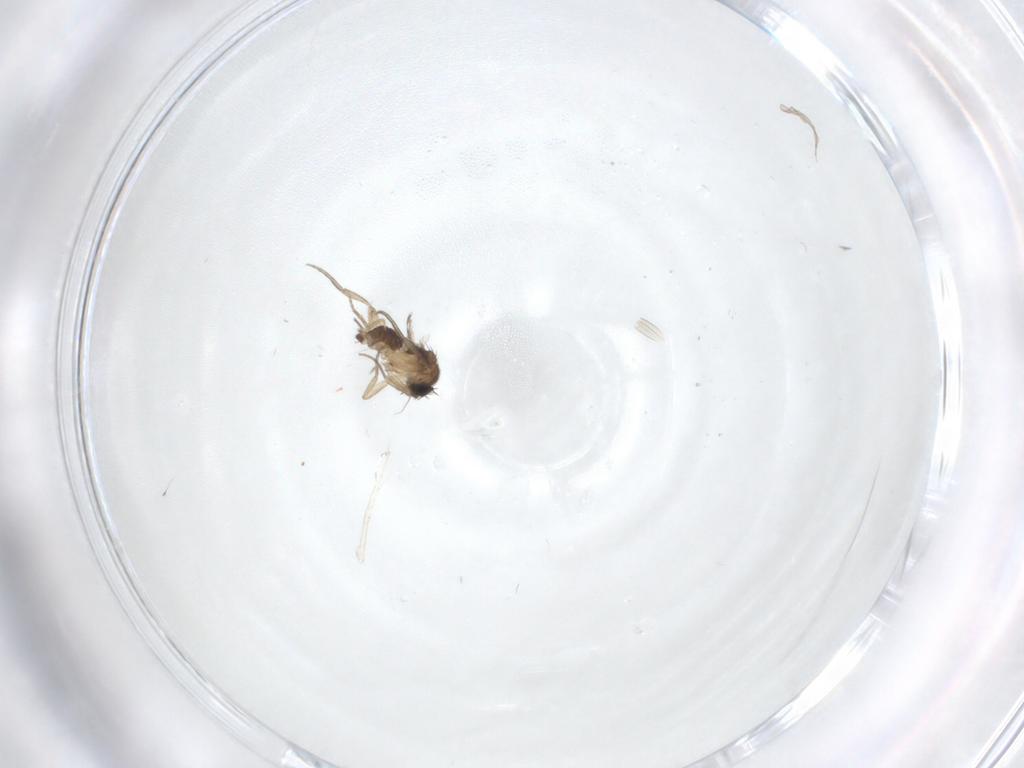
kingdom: Animalia
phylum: Arthropoda
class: Insecta
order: Diptera
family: Phoridae
